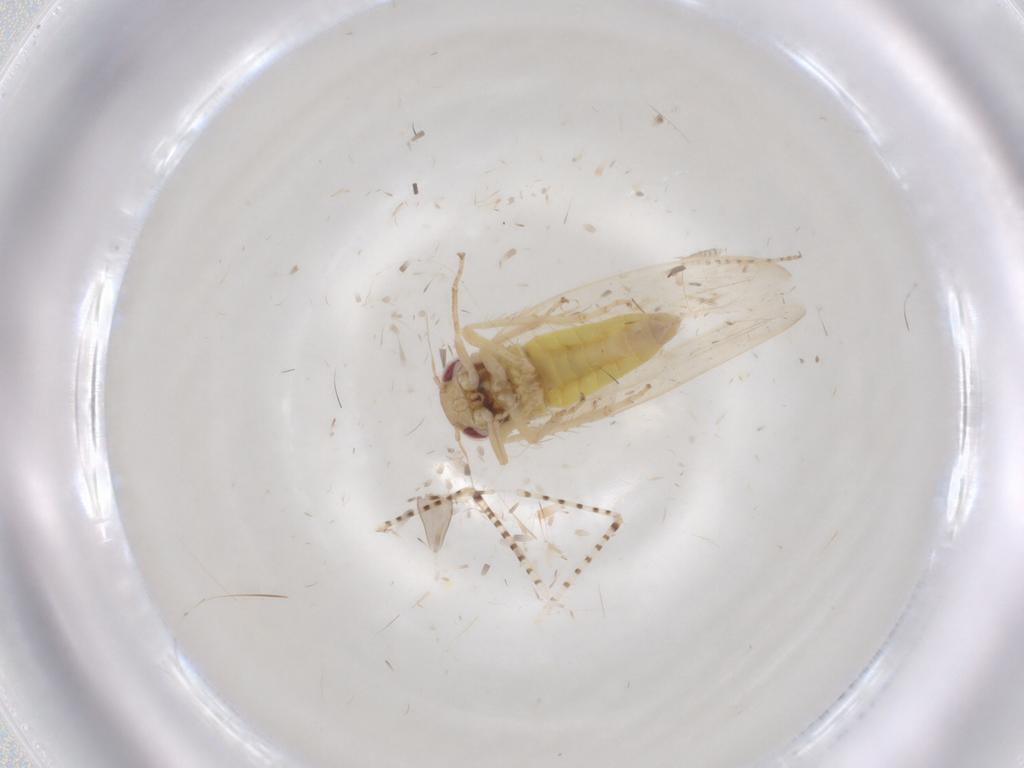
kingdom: Animalia
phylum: Arthropoda
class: Insecta
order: Hemiptera
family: Cicadellidae
